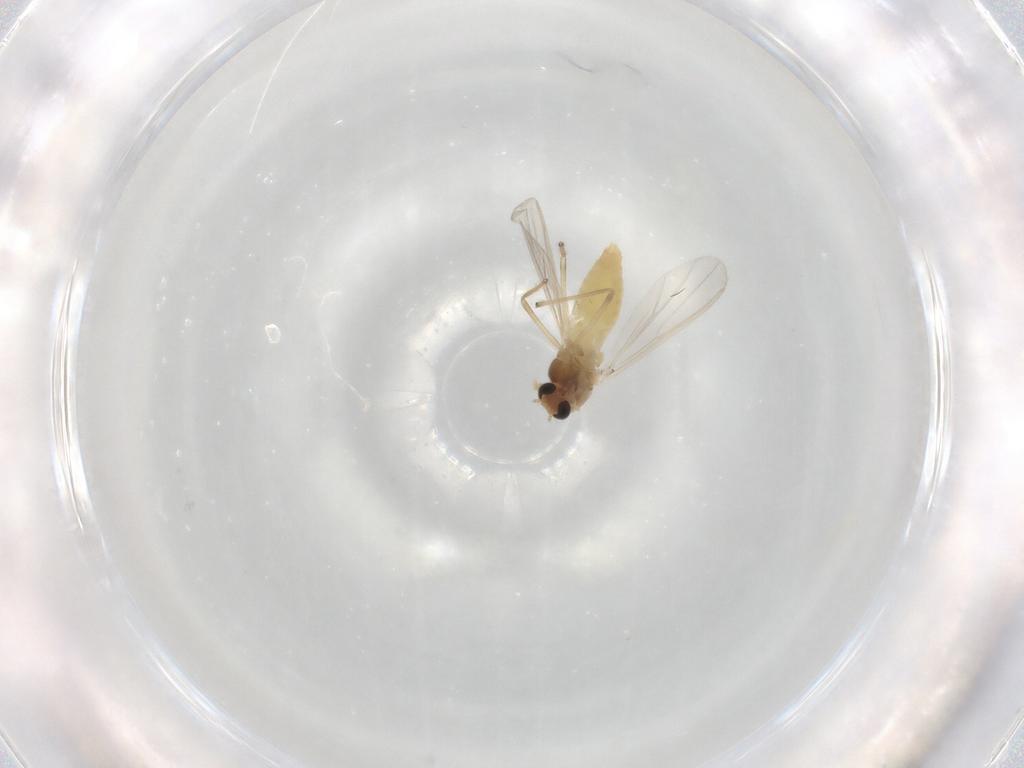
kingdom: Animalia
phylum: Arthropoda
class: Insecta
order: Diptera
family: Chironomidae
